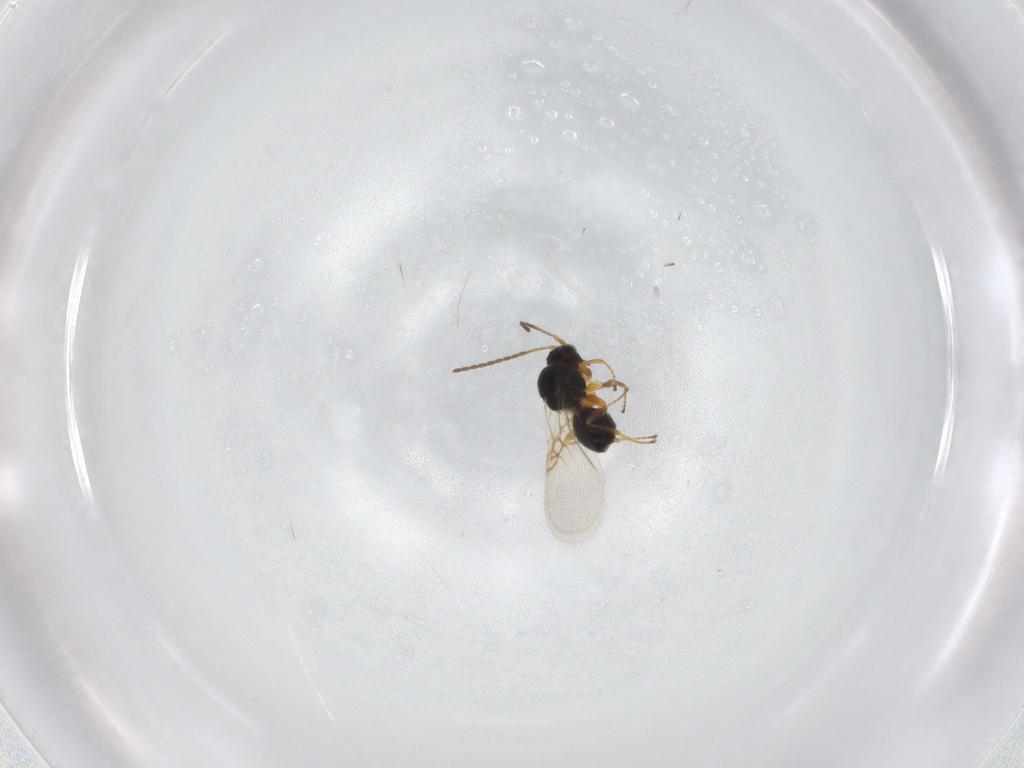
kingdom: Animalia
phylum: Arthropoda
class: Insecta
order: Hymenoptera
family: Figitidae
